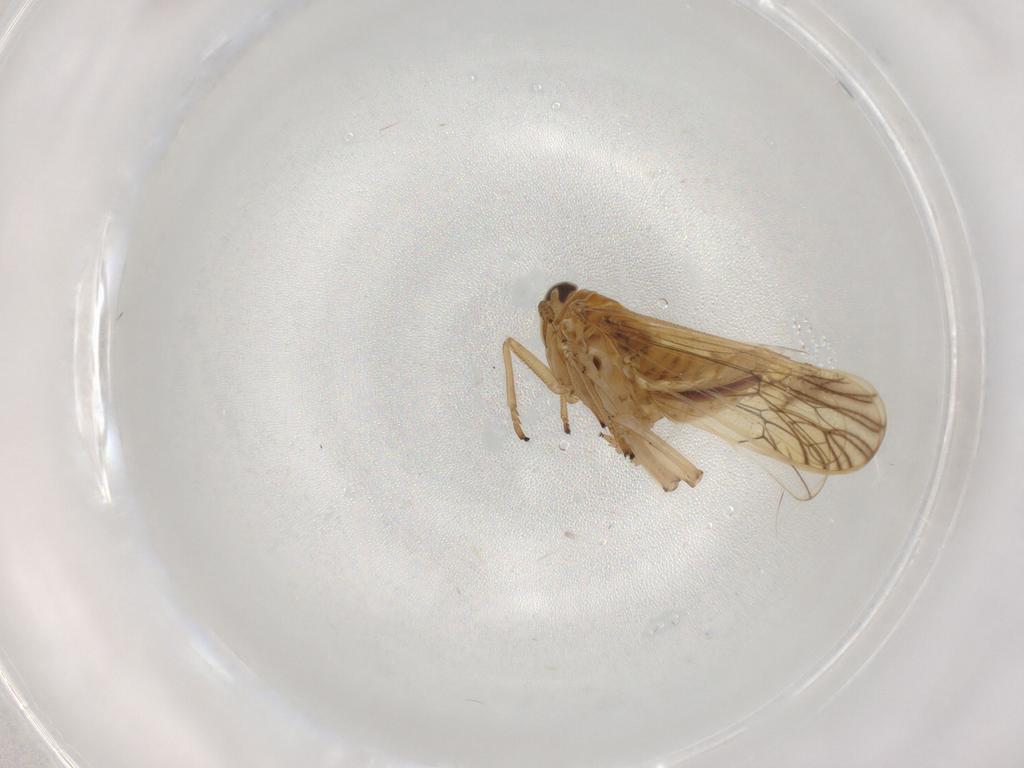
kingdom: Animalia
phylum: Arthropoda
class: Insecta
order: Hemiptera
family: Delphacidae
